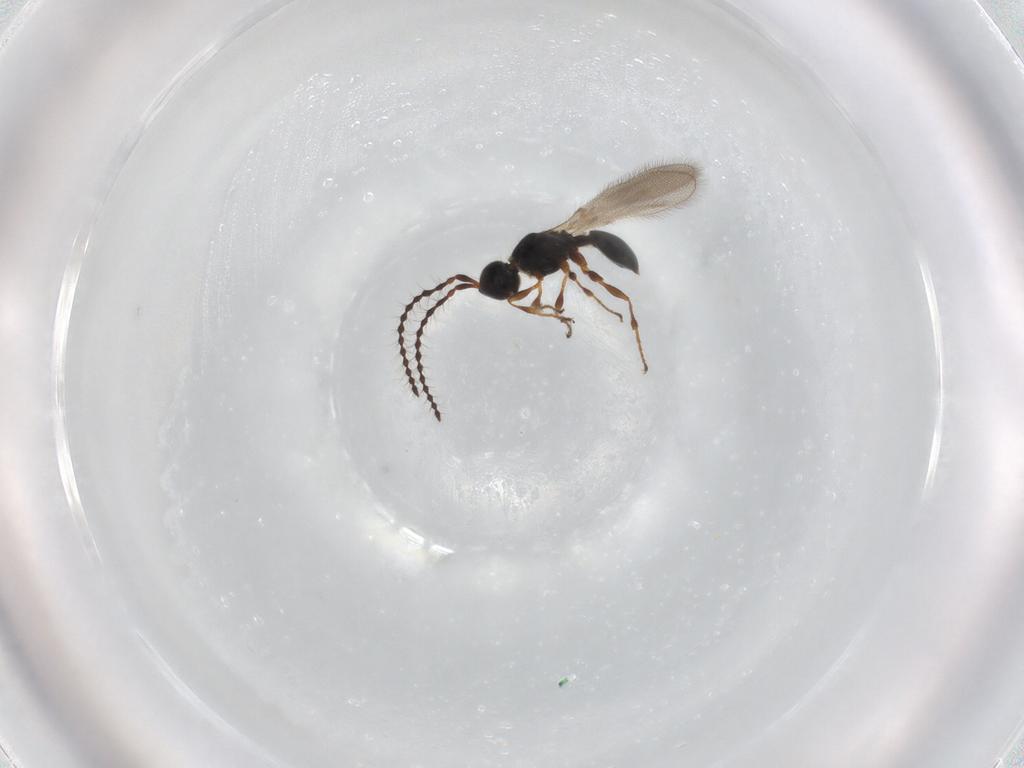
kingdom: Animalia
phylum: Arthropoda
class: Insecta
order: Hymenoptera
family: Diapriidae
